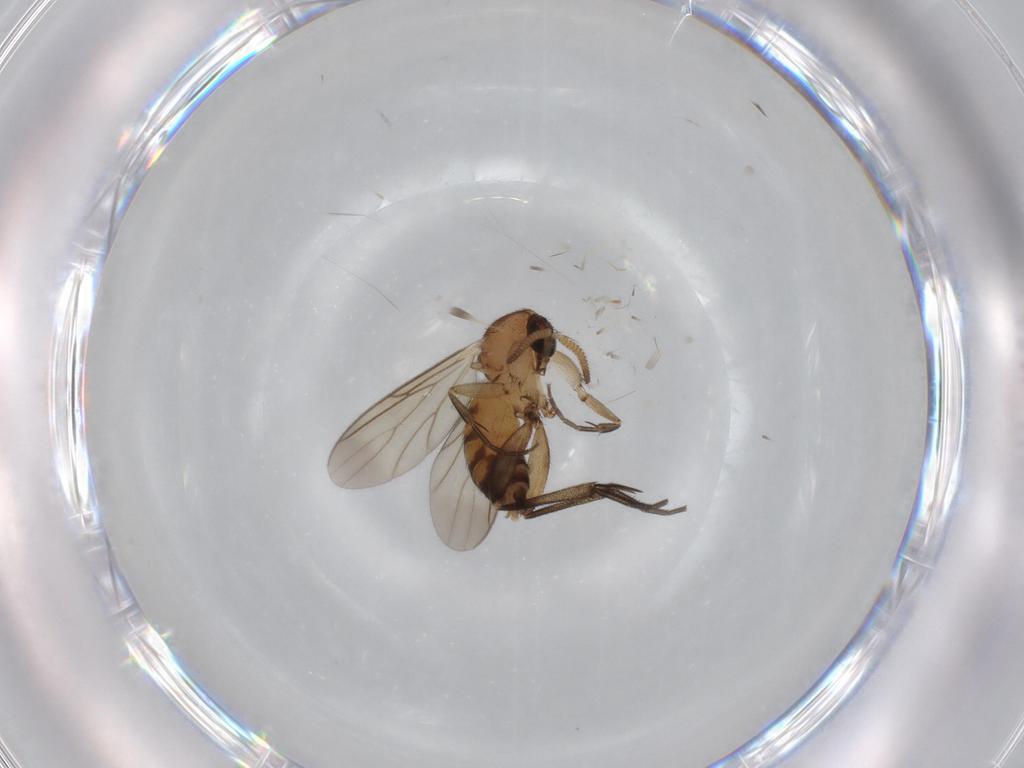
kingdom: Animalia
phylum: Arthropoda
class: Insecta
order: Diptera
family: Mycetophilidae
